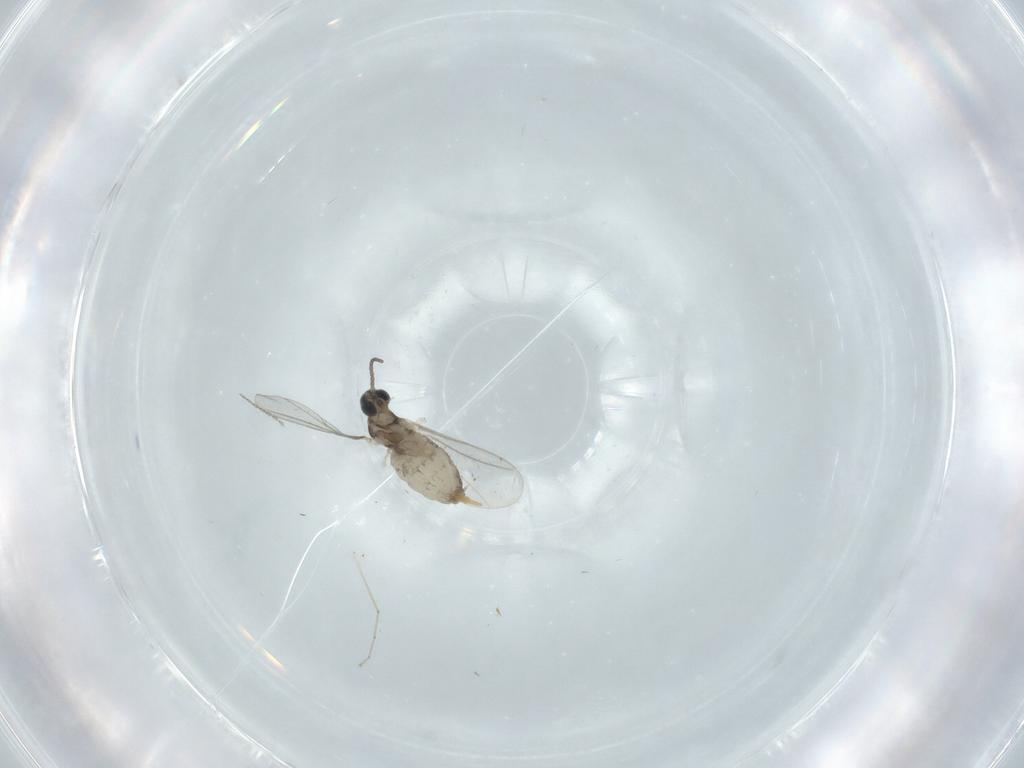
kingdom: Animalia
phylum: Arthropoda
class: Insecta
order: Diptera
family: Cecidomyiidae
